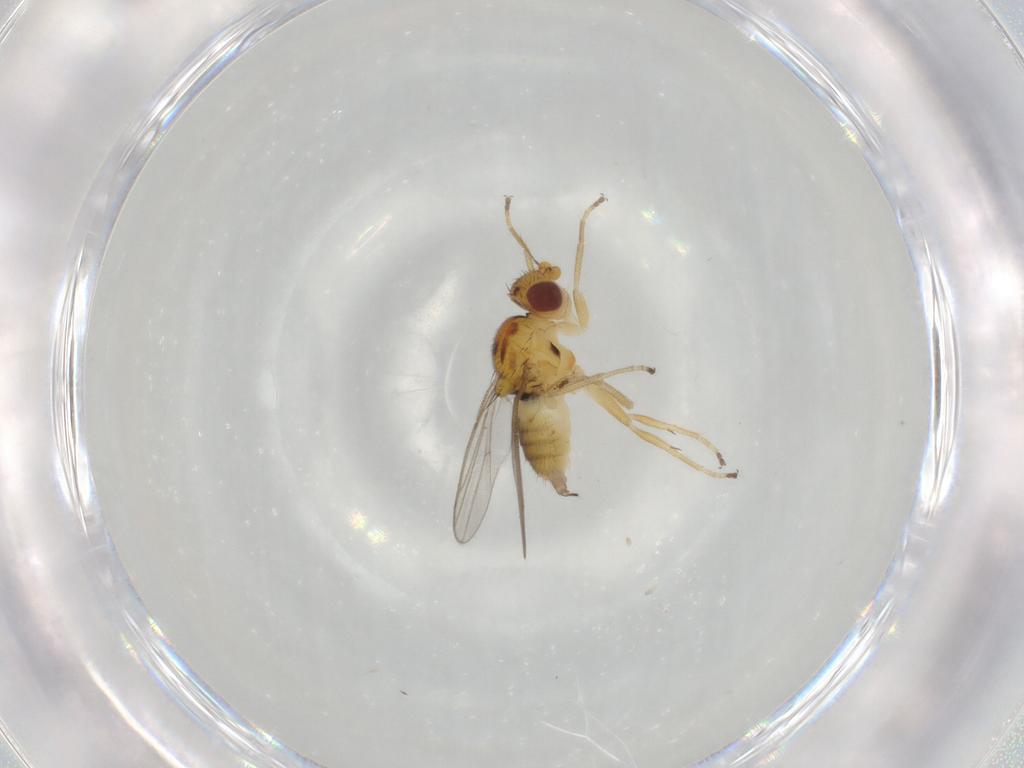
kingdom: Animalia
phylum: Arthropoda
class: Insecta
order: Diptera
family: Chloropidae
